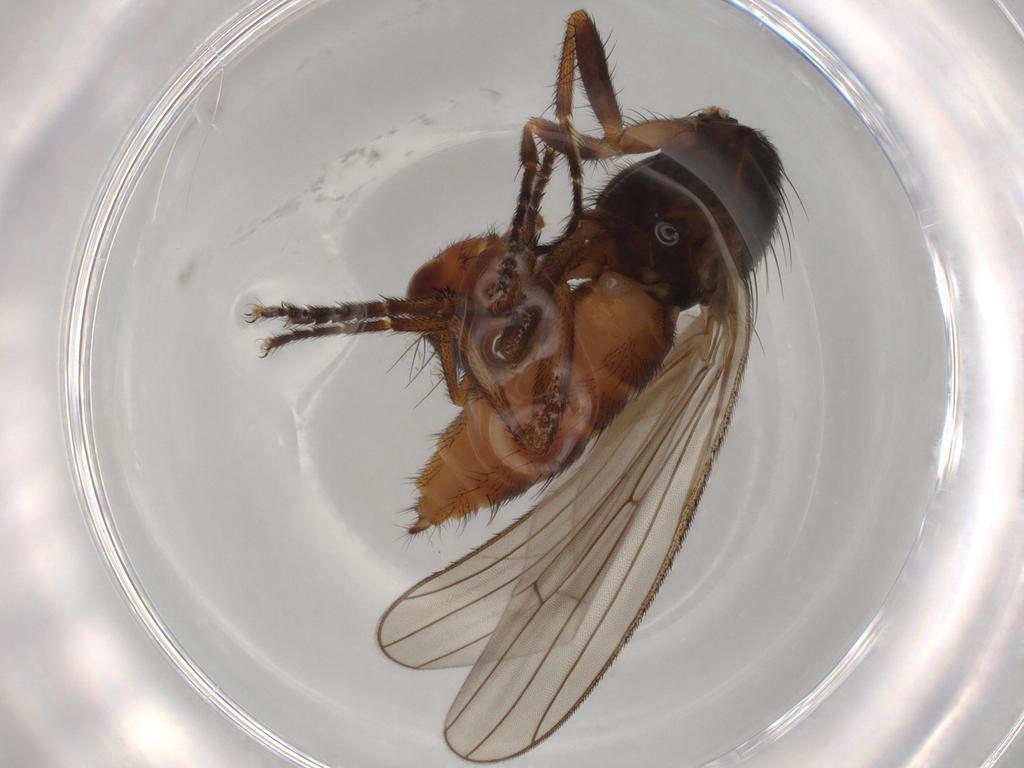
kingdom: Animalia
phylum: Arthropoda
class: Insecta
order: Diptera
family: Heleomyzidae
